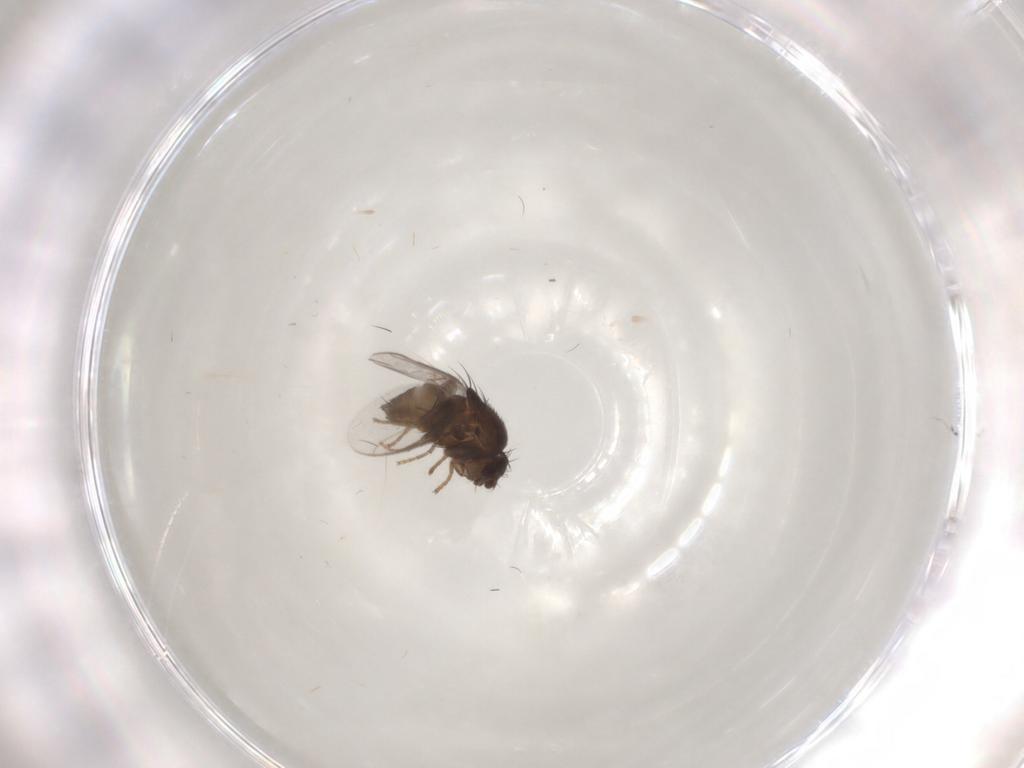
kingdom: Animalia
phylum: Arthropoda
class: Insecta
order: Diptera
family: Sphaeroceridae
